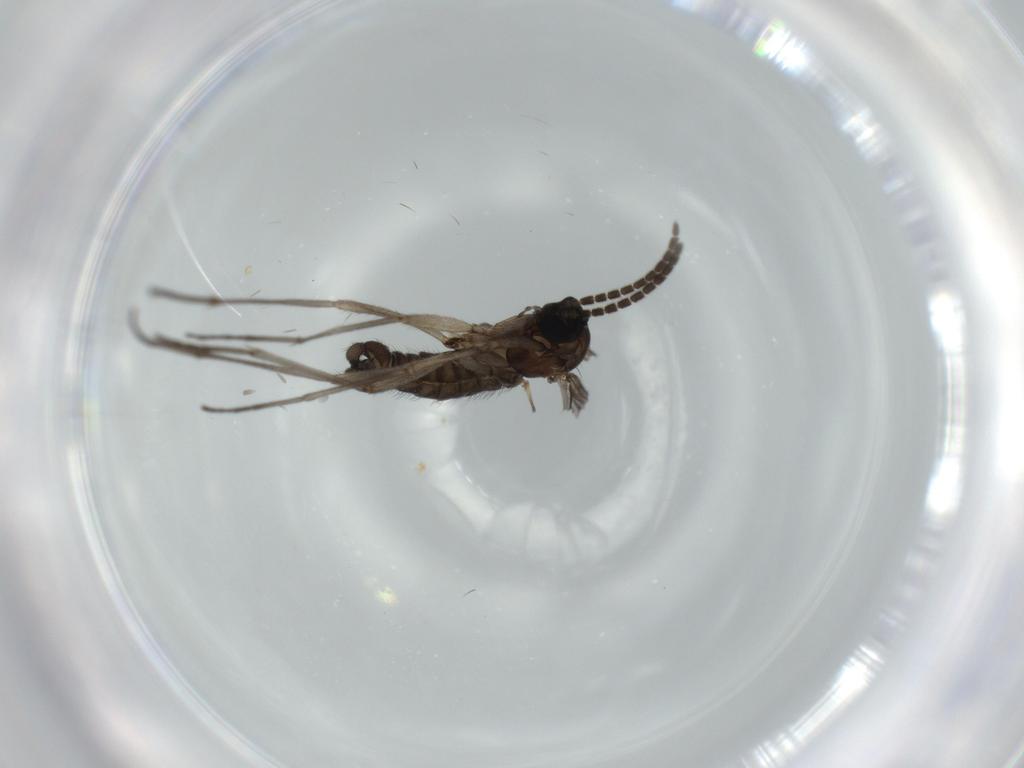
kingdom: Animalia
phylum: Arthropoda
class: Insecta
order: Diptera
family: Sciaridae
